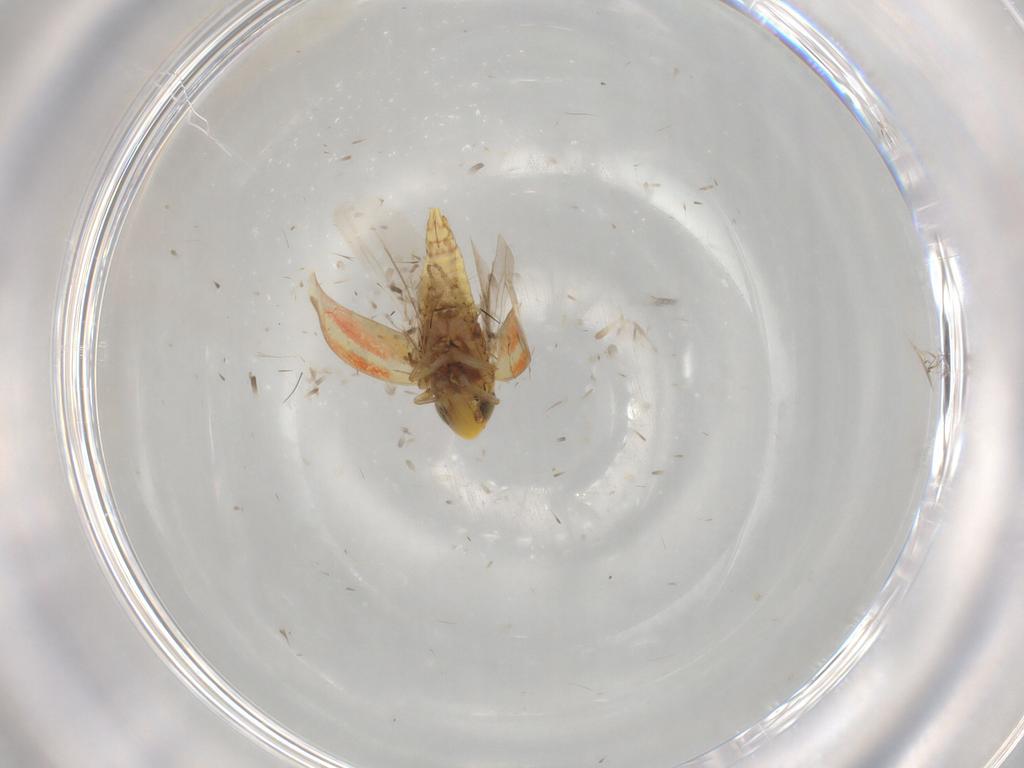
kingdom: Animalia
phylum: Arthropoda
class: Insecta
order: Hemiptera
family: Cicadellidae
